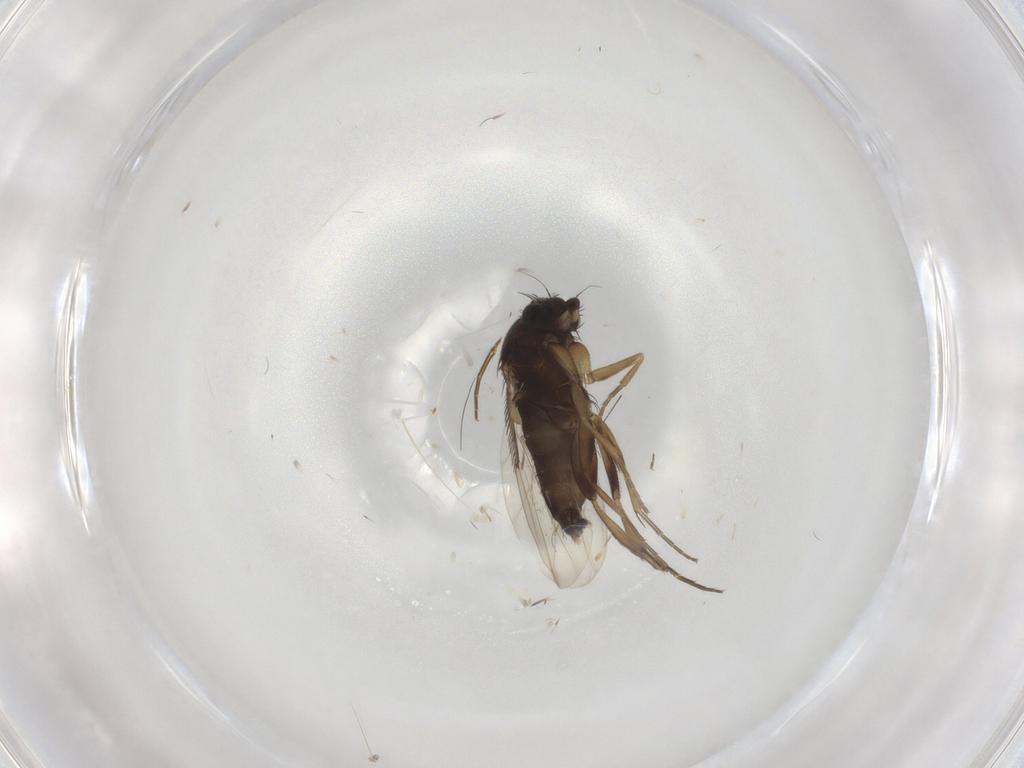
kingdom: Animalia
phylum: Arthropoda
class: Insecta
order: Diptera
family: Phoridae
